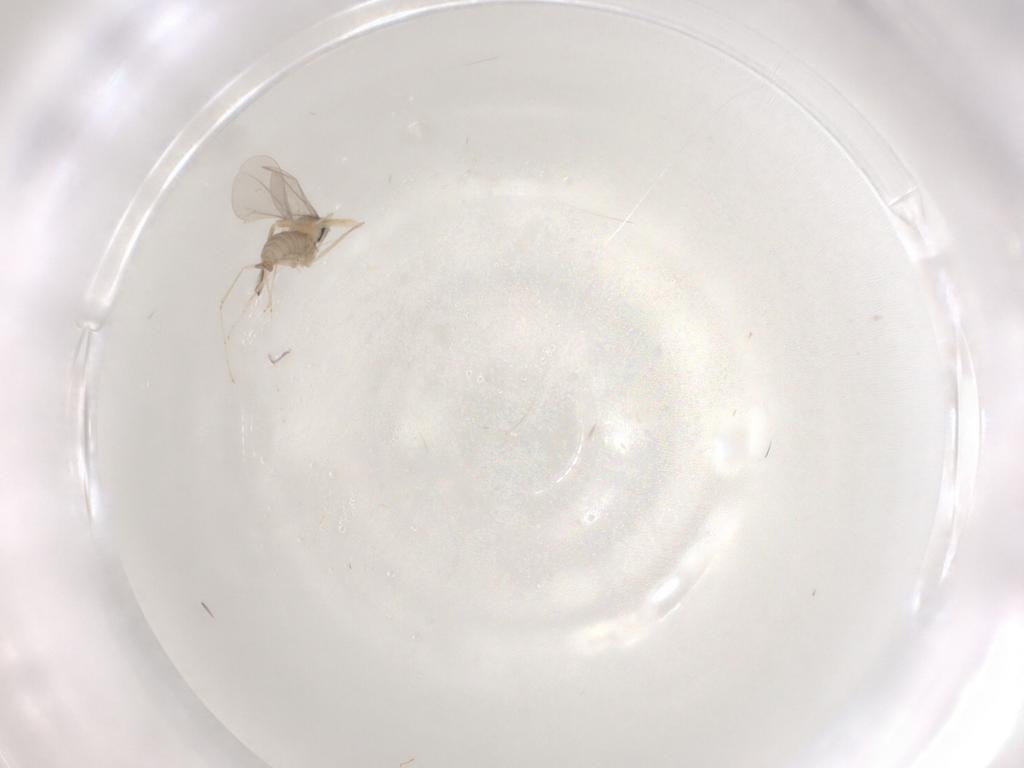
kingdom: Animalia
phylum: Arthropoda
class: Insecta
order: Diptera
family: Cecidomyiidae
